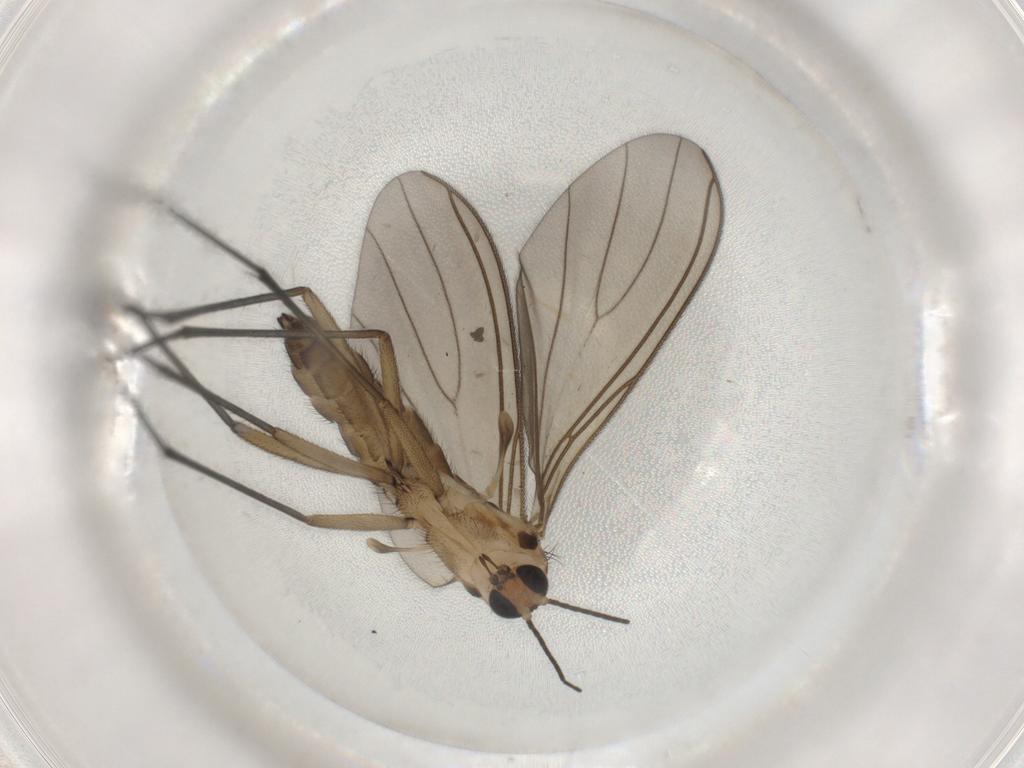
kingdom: Animalia
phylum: Arthropoda
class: Insecta
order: Diptera
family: Sciaridae
